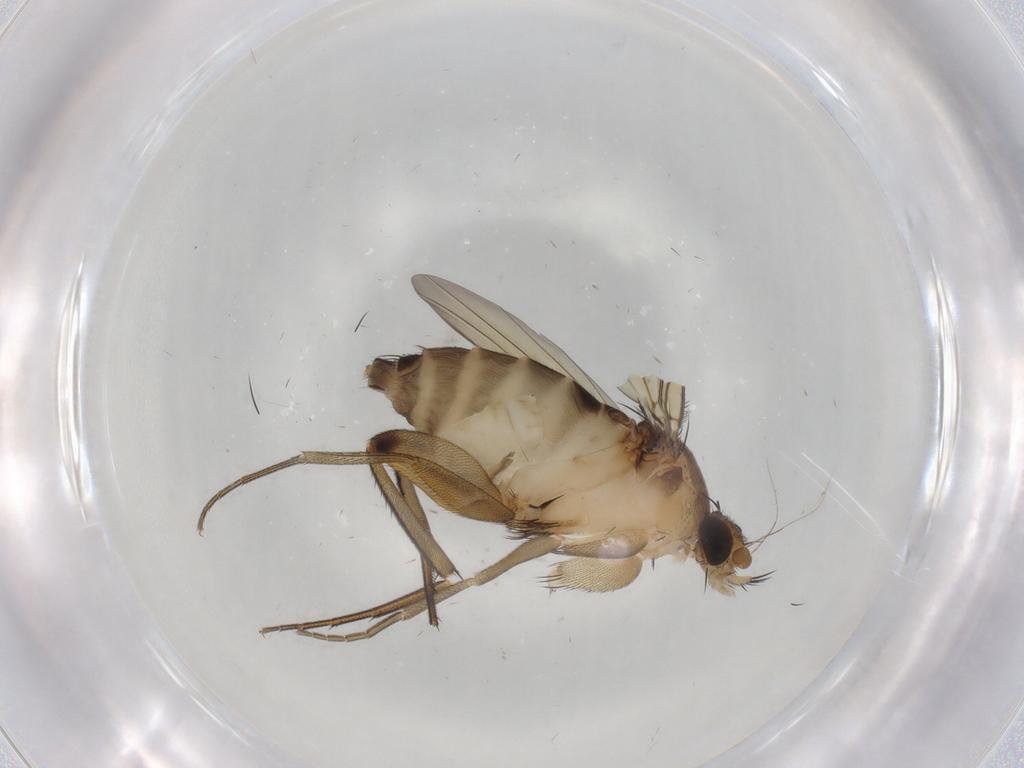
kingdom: Animalia
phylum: Arthropoda
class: Insecta
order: Diptera
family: Phoridae
